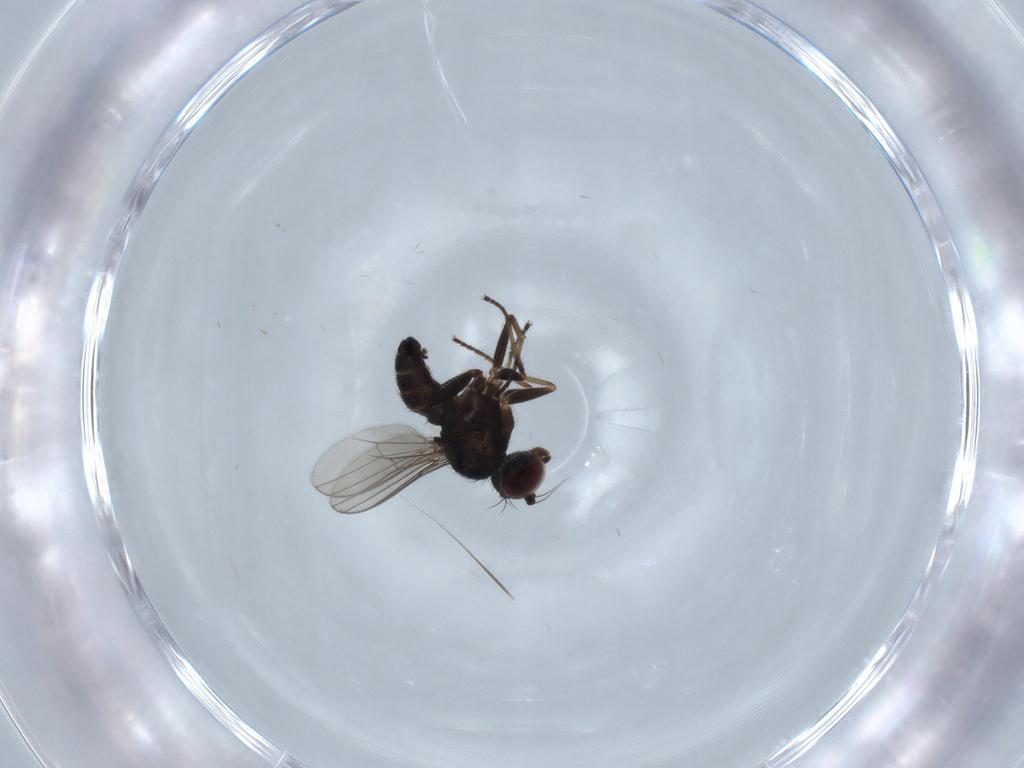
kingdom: Animalia
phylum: Arthropoda
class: Insecta
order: Diptera
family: Dolichopodidae
